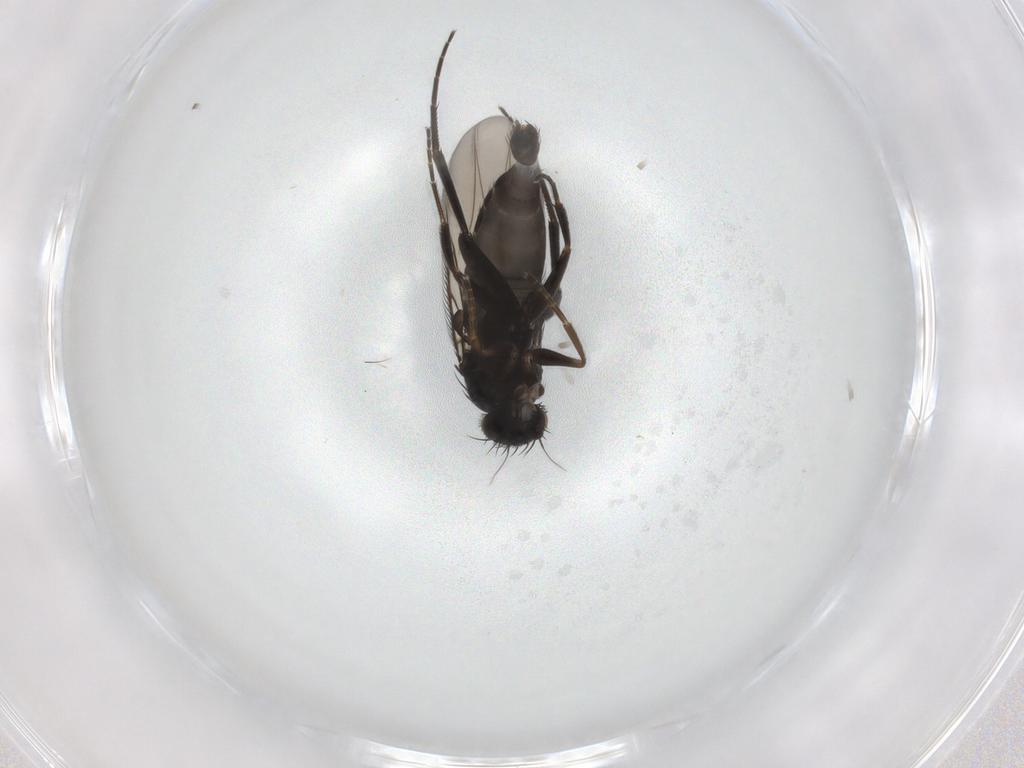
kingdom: Animalia
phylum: Arthropoda
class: Insecta
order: Diptera
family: Phoridae
